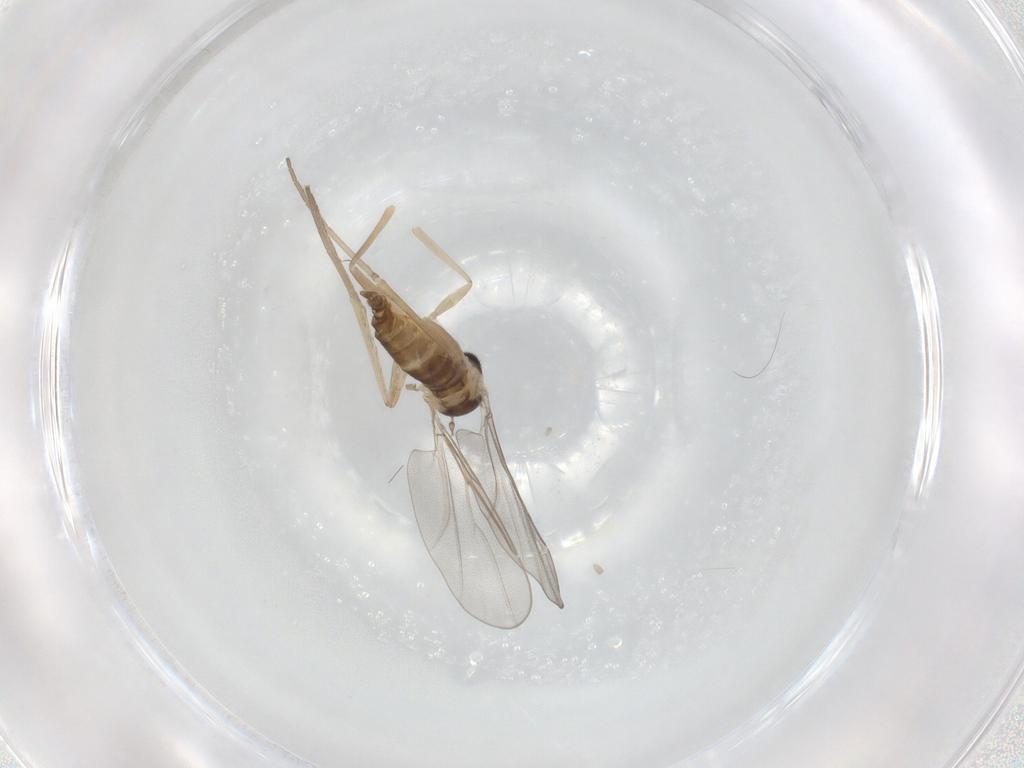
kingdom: Animalia
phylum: Arthropoda
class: Insecta
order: Diptera
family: Cecidomyiidae
